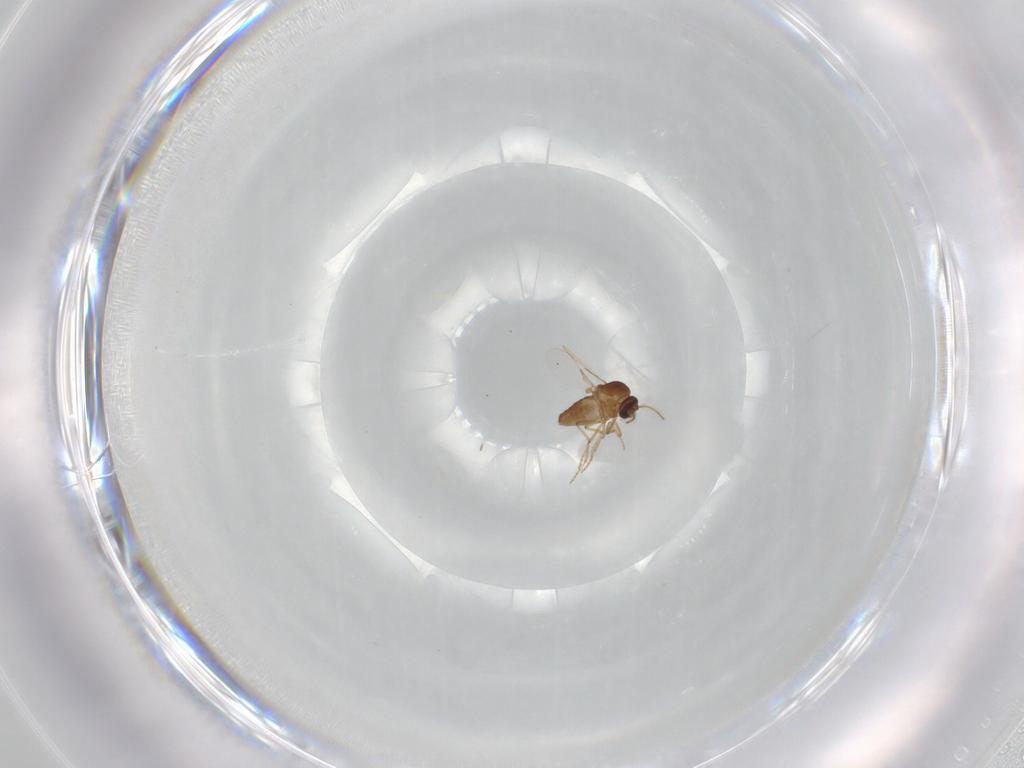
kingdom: Animalia
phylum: Arthropoda
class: Insecta
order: Diptera
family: Ceratopogonidae
